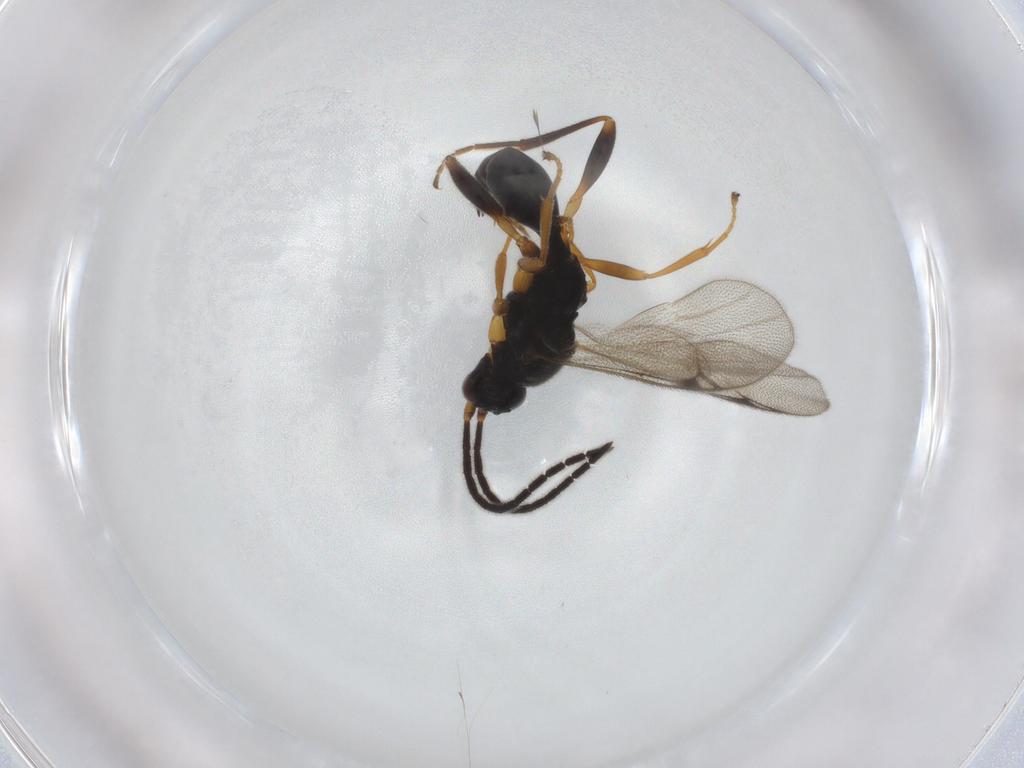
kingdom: Animalia
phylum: Arthropoda
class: Insecta
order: Hymenoptera
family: Proctotrupidae
